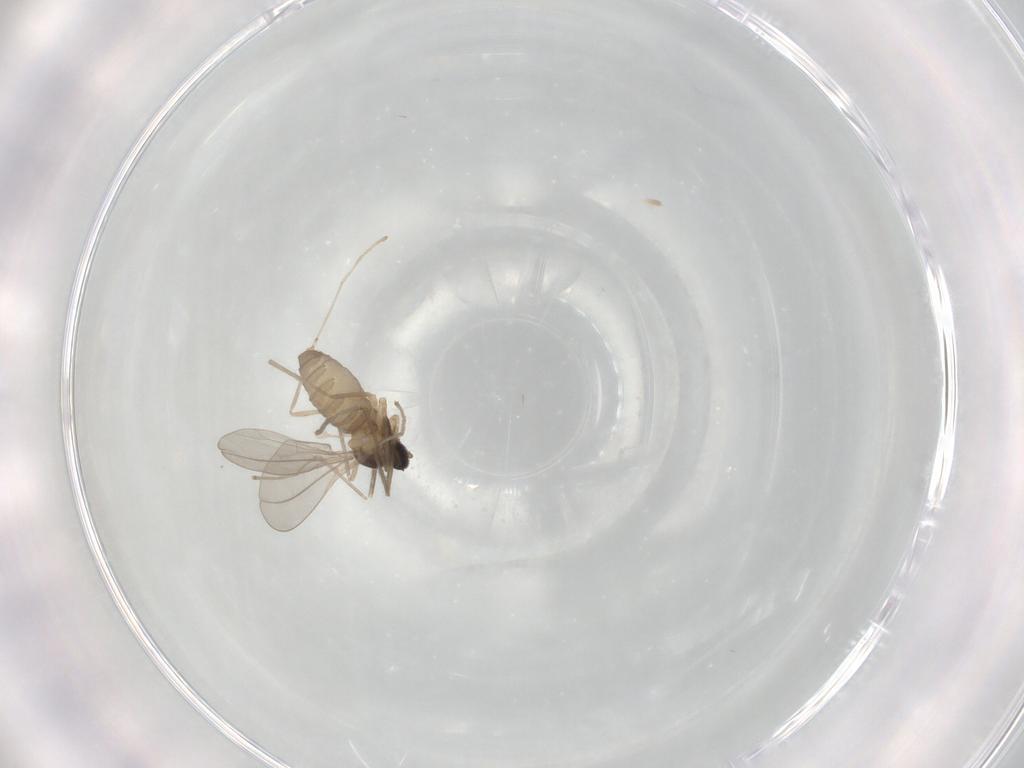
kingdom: Animalia
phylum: Arthropoda
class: Insecta
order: Diptera
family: Cecidomyiidae
